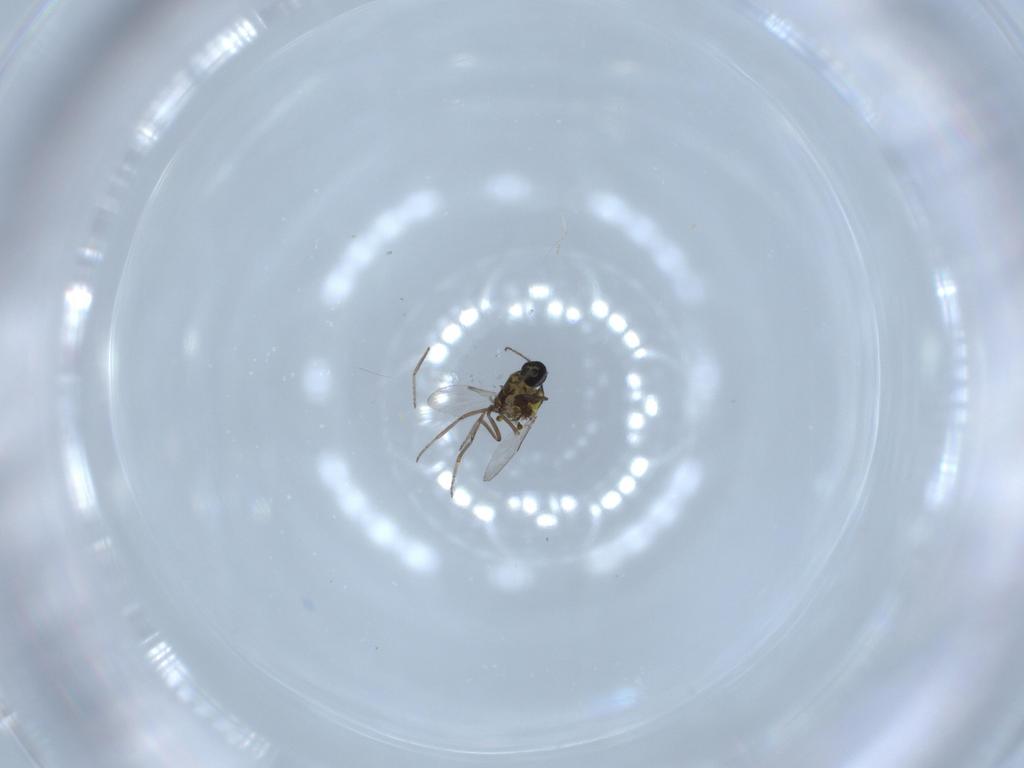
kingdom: Animalia
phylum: Arthropoda
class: Insecta
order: Diptera
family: Cecidomyiidae
